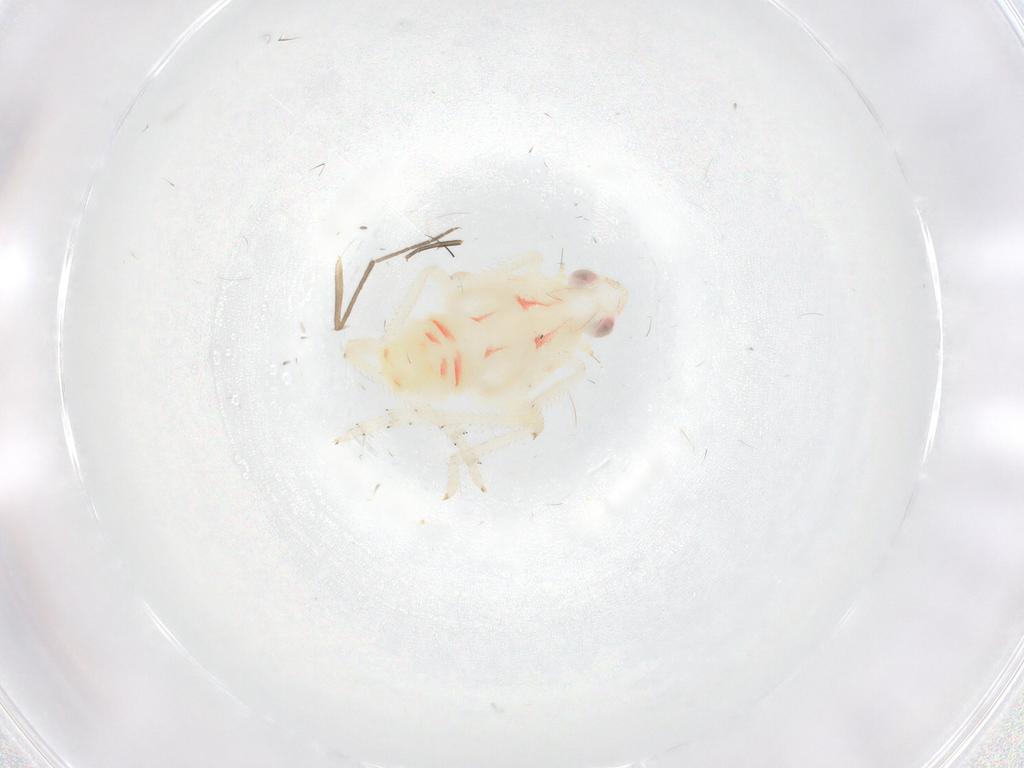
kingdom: Animalia
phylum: Arthropoda
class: Insecta
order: Hemiptera
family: Tropiduchidae
